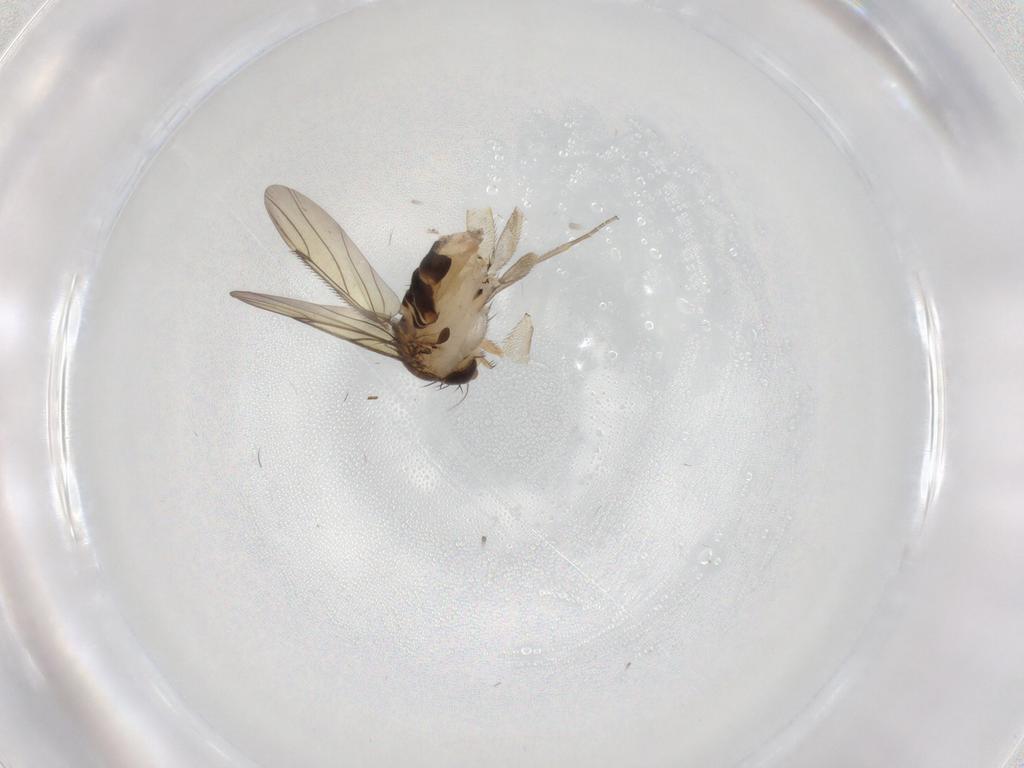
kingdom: Animalia
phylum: Arthropoda
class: Insecta
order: Diptera
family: Phoridae
